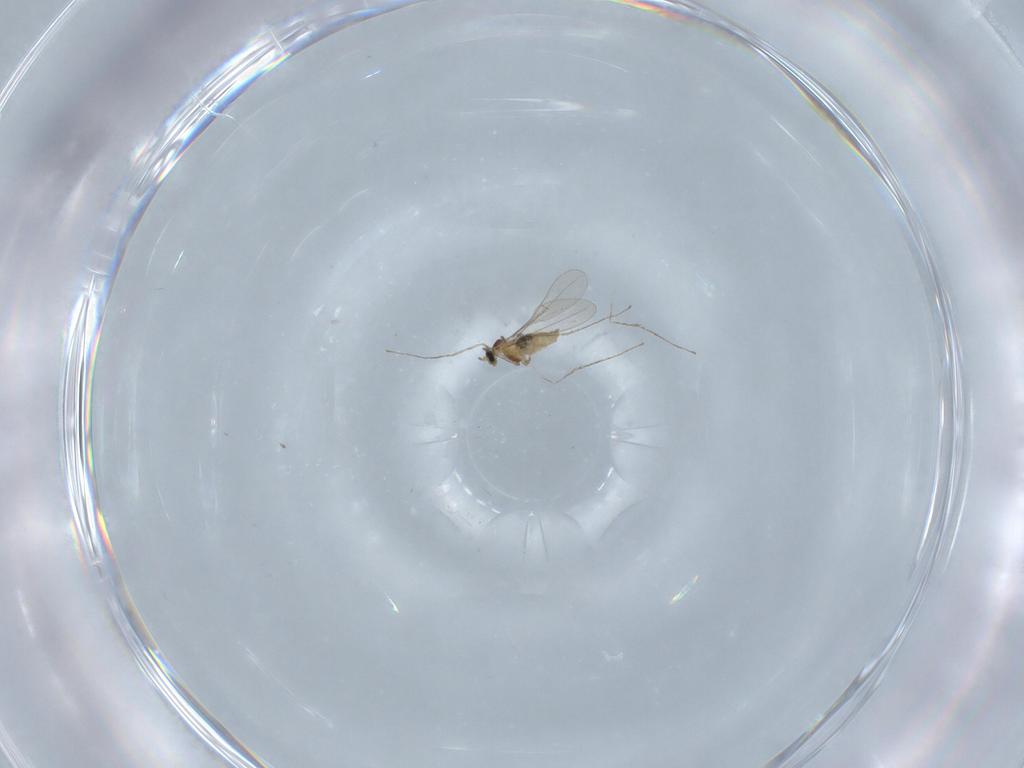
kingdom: Animalia
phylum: Arthropoda
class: Insecta
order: Diptera
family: Cecidomyiidae
